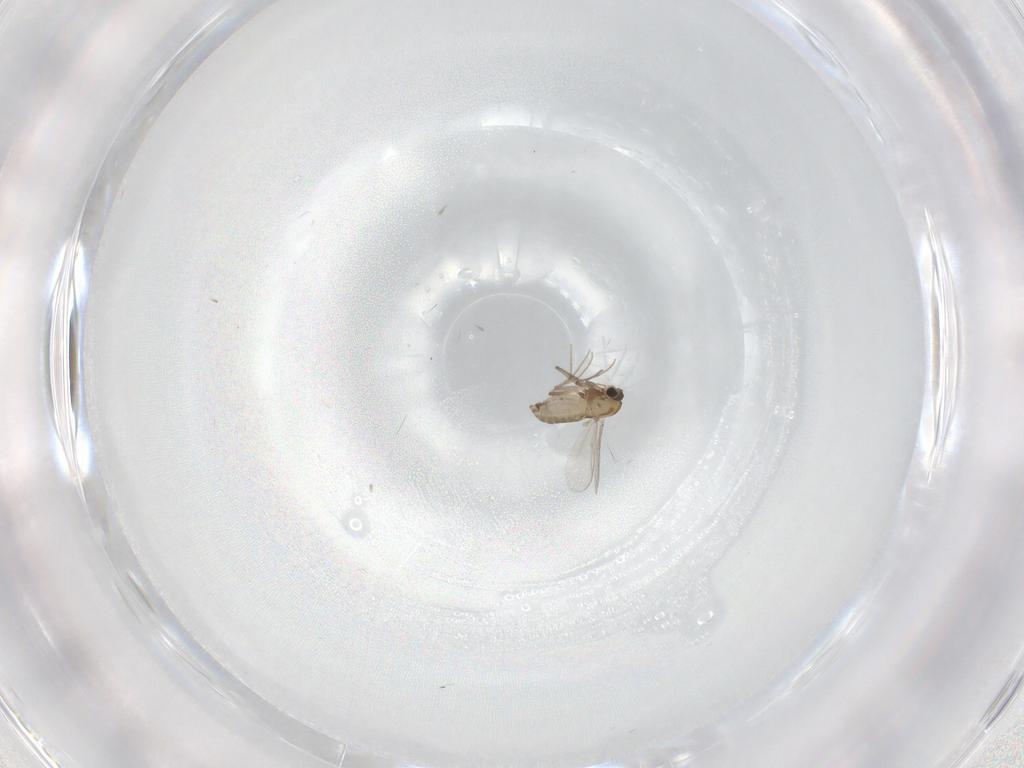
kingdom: Animalia
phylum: Arthropoda
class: Insecta
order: Diptera
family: Chironomidae
